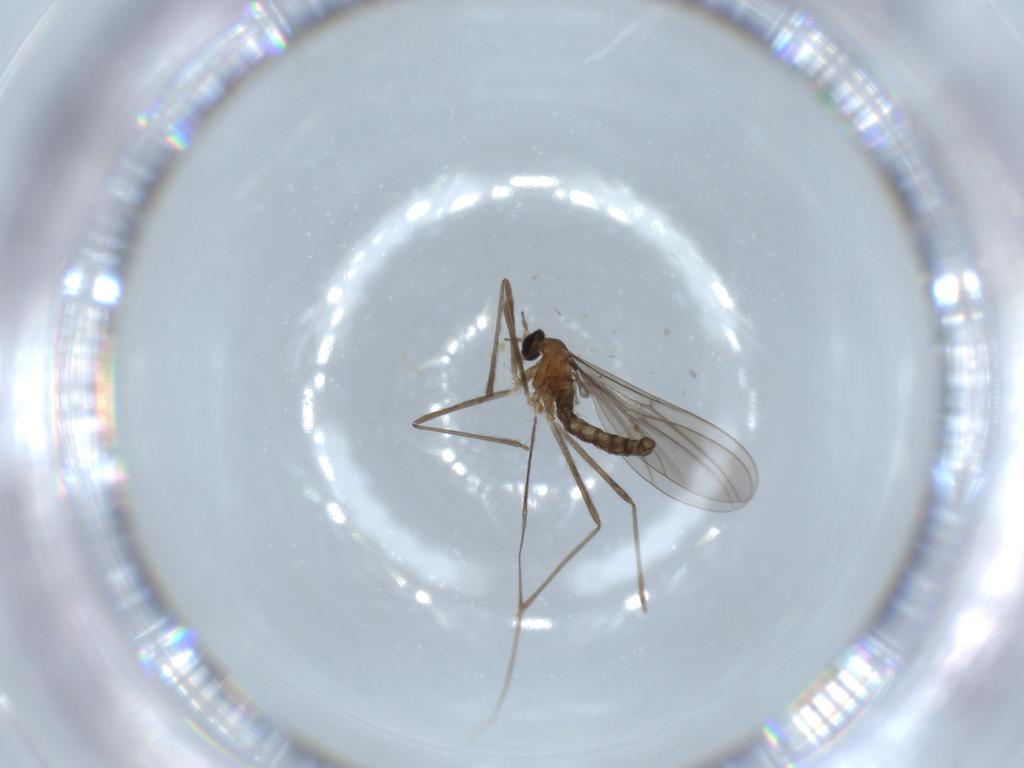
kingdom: Animalia
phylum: Arthropoda
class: Insecta
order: Diptera
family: Cecidomyiidae
